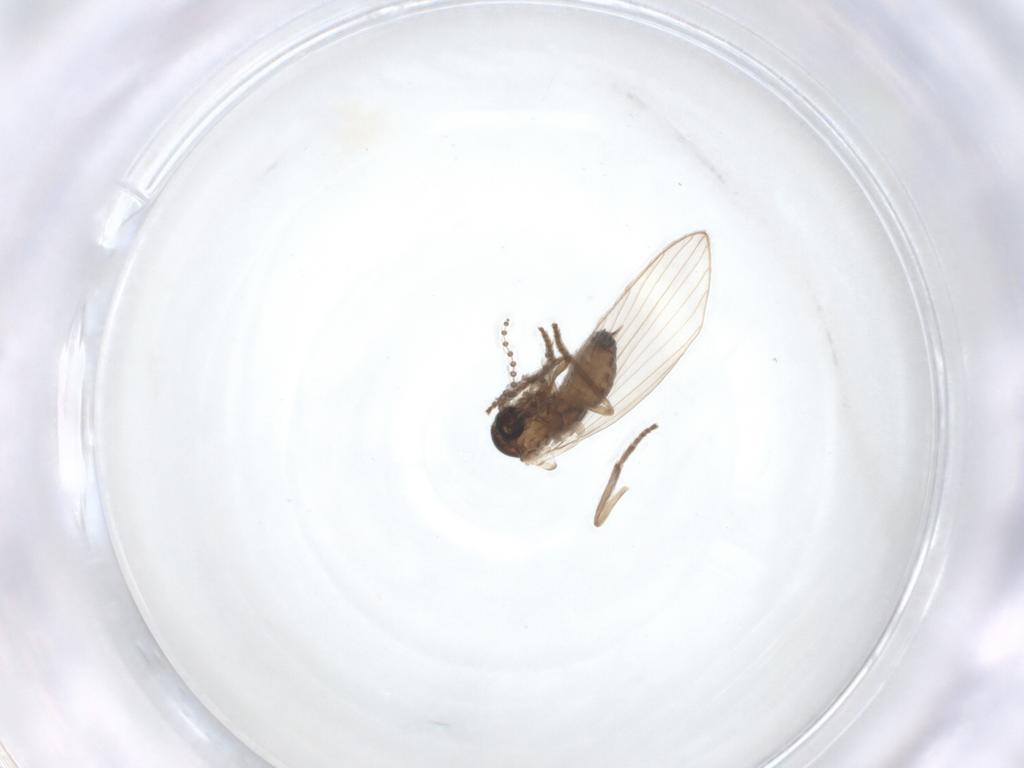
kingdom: Animalia
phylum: Arthropoda
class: Insecta
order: Diptera
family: Psychodidae
